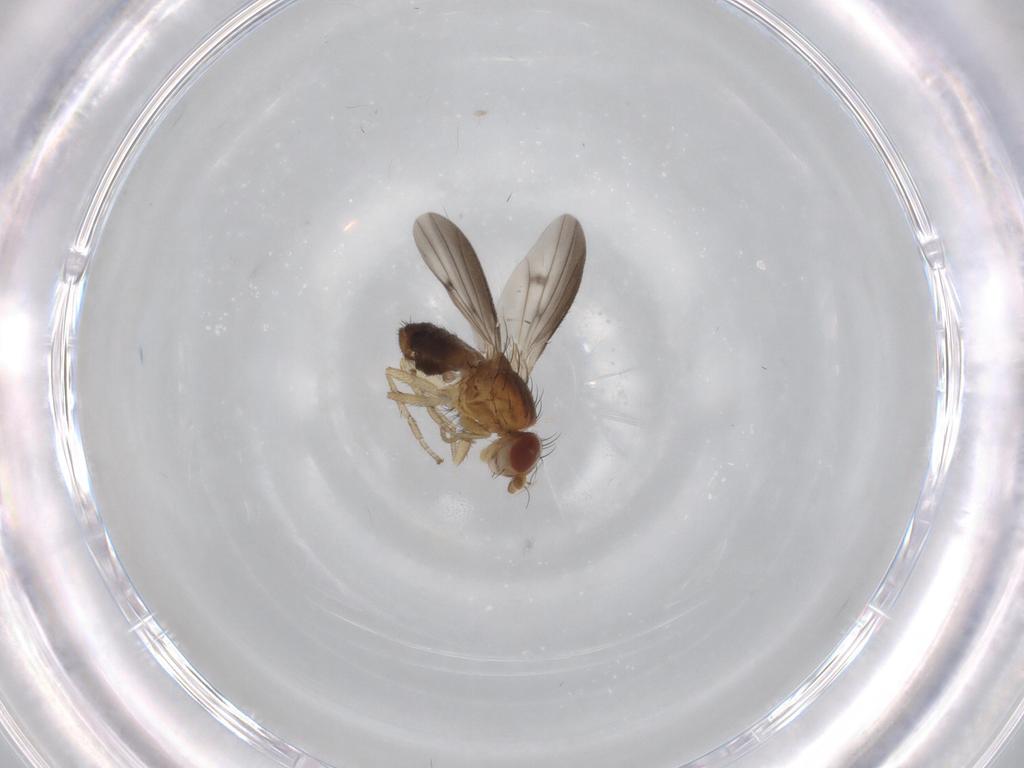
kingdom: Animalia
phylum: Arthropoda
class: Insecta
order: Diptera
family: Heleomyzidae
